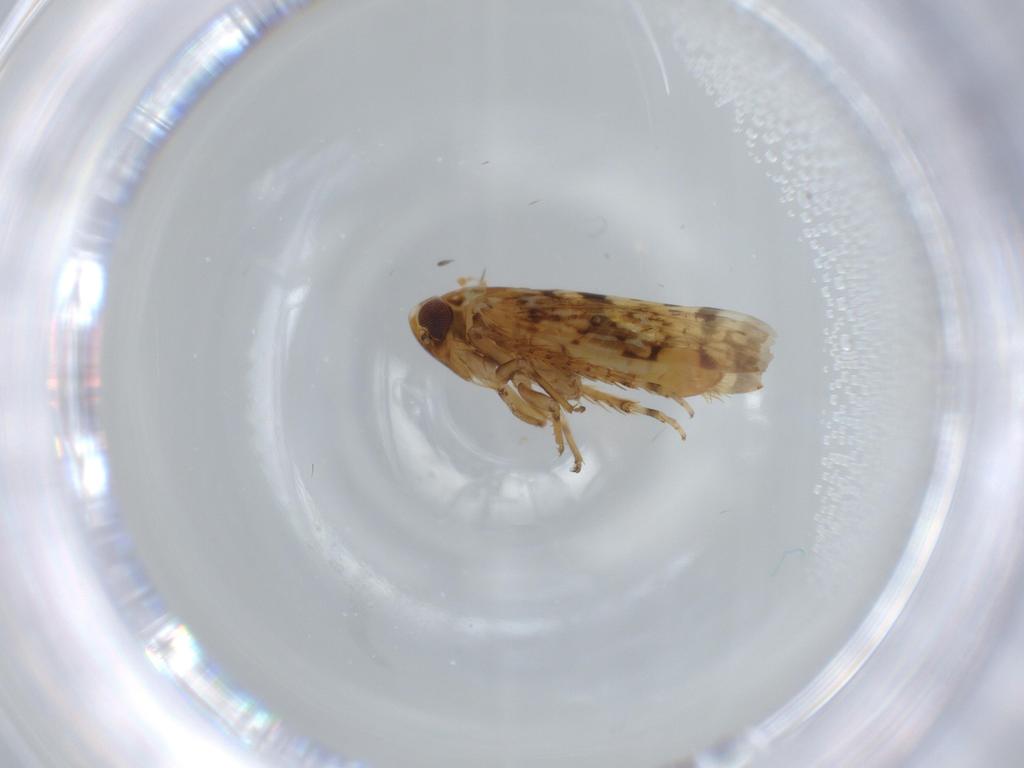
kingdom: Animalia
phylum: Arthropoda
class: Insecta
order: Hemiptera
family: Cicadellidae
